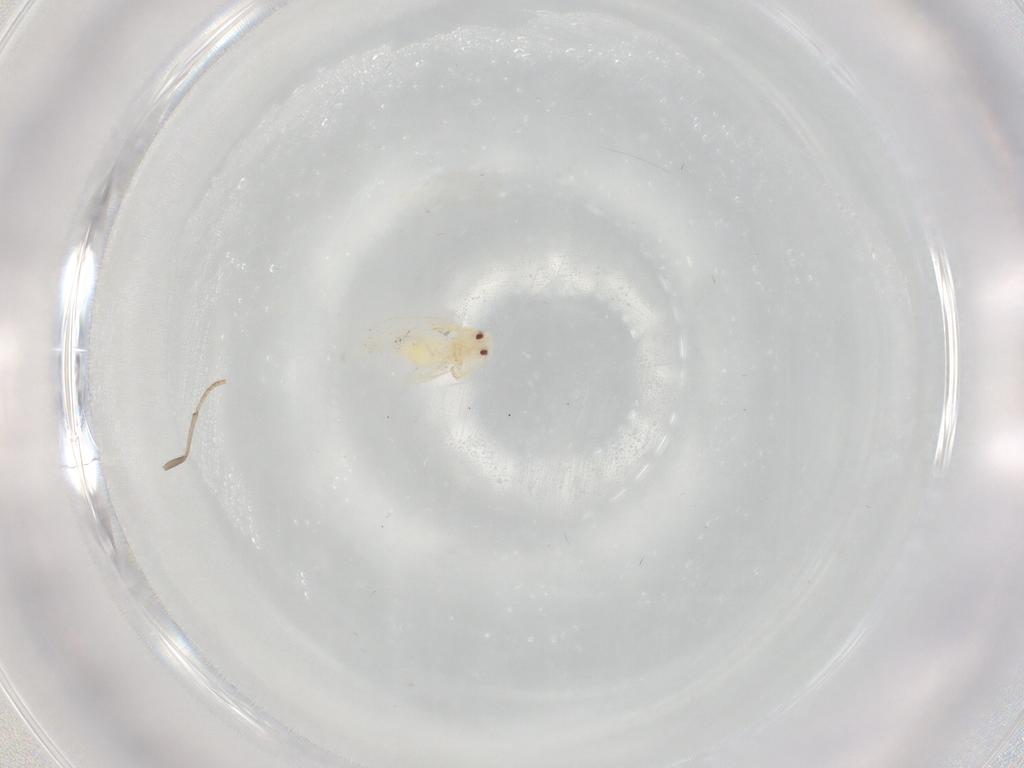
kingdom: Animalia
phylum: Arthropoda
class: Insecta
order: Hemiptera
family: Aleyrodidae
